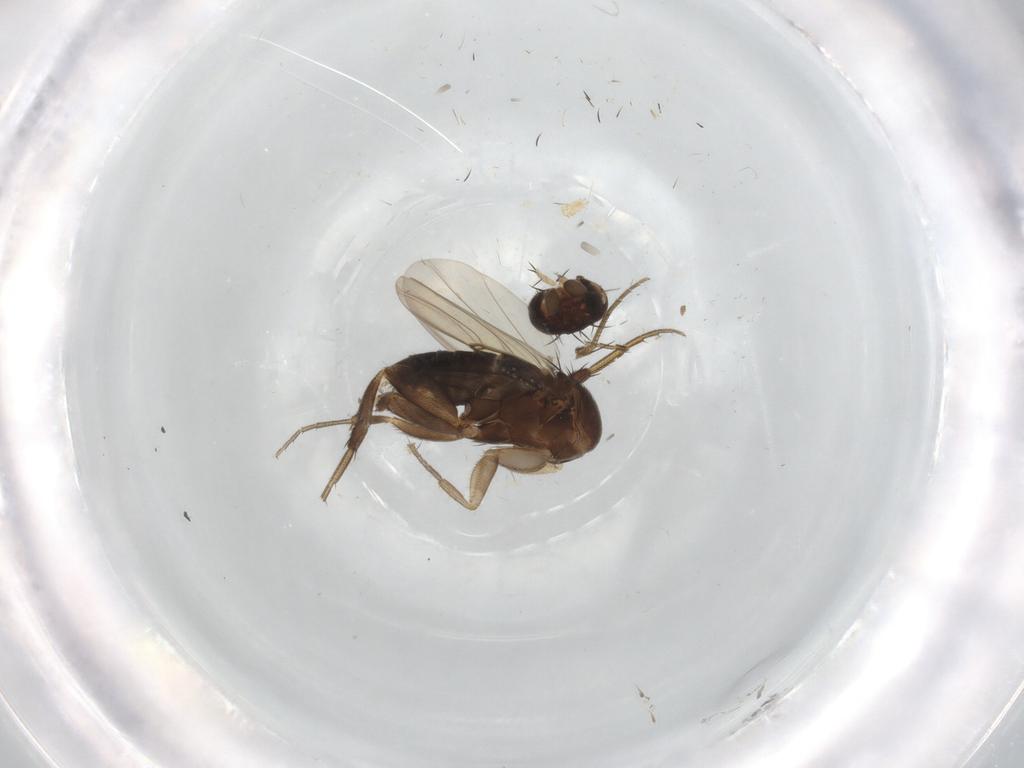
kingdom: Animalia
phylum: Arthropoda
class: Insecta
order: Diptera
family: Phoridae
